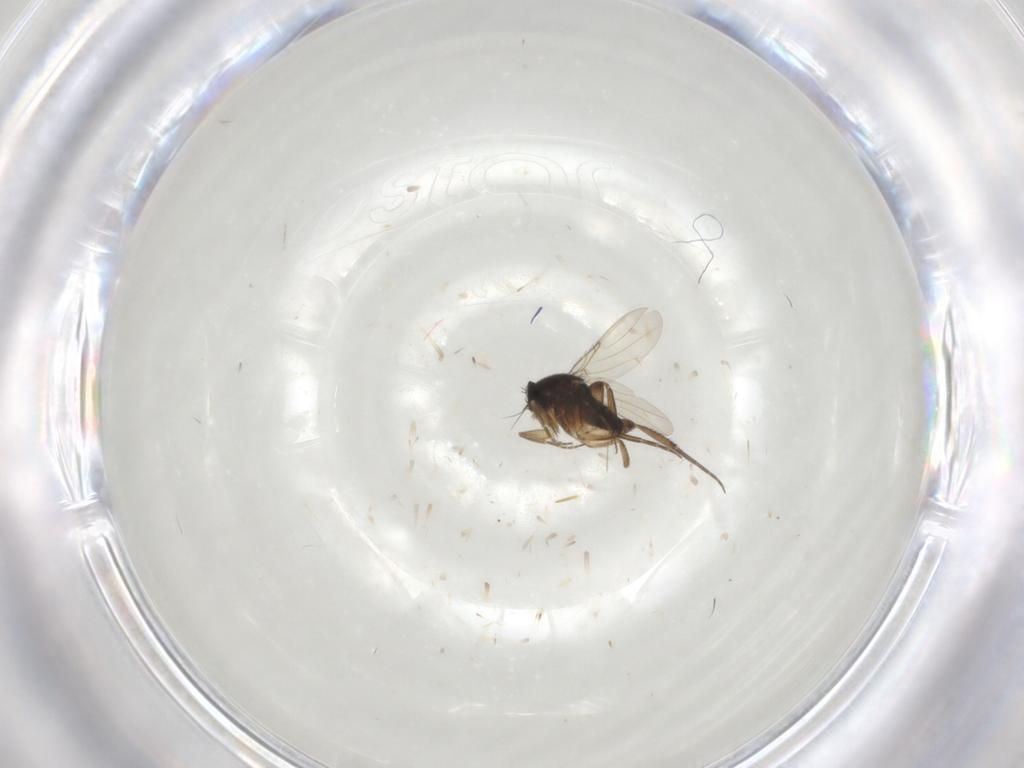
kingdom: Animalia
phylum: Arthropoda
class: Insecta
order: Diptera
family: Phoridae
